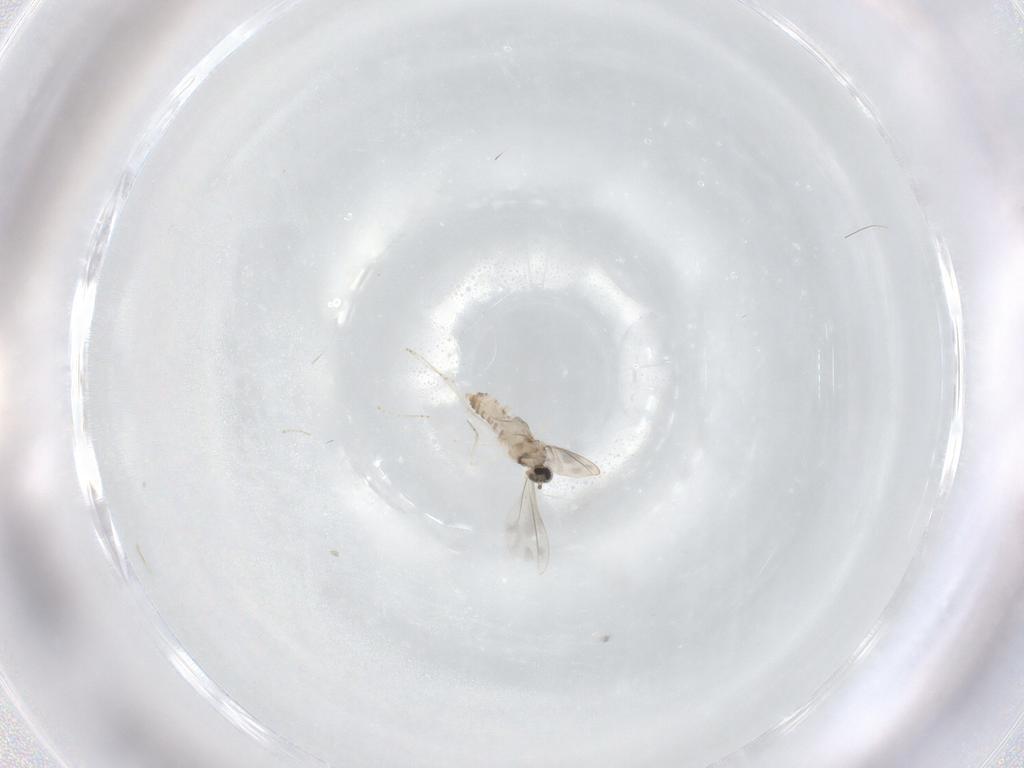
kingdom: Animalia
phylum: Arthropoda
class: Insecta
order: Diptera
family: Cecidomyiidae
